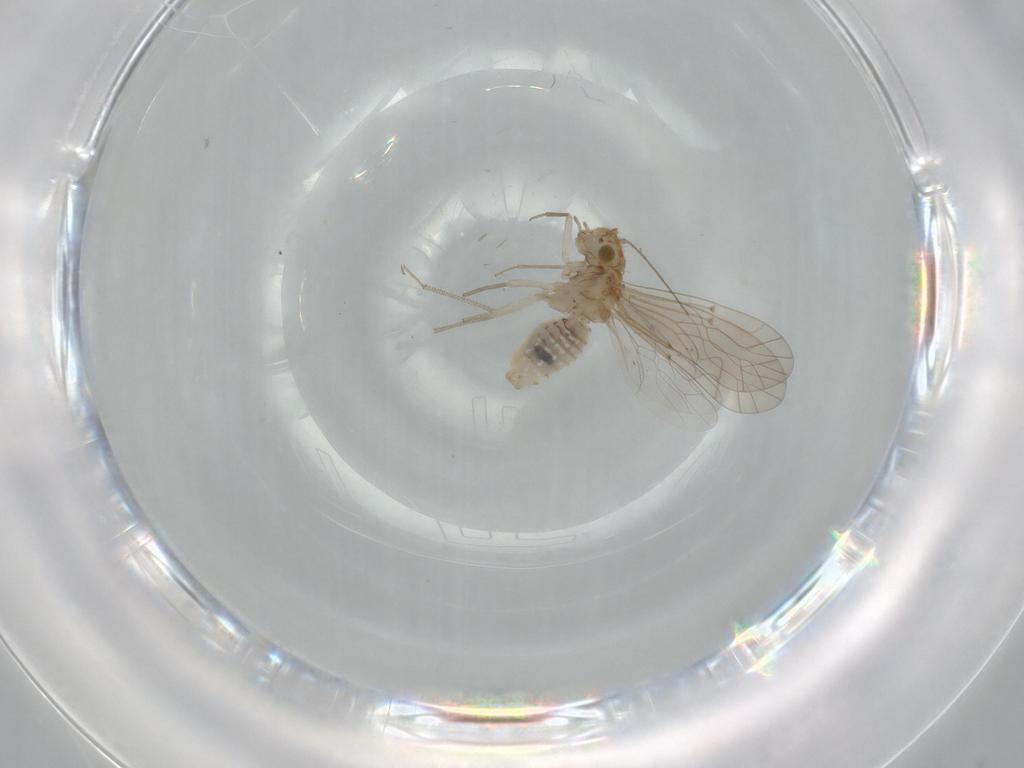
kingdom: Animalia
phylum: Arthropoda
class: Insecta
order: Psocodea
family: Lachesillidae
